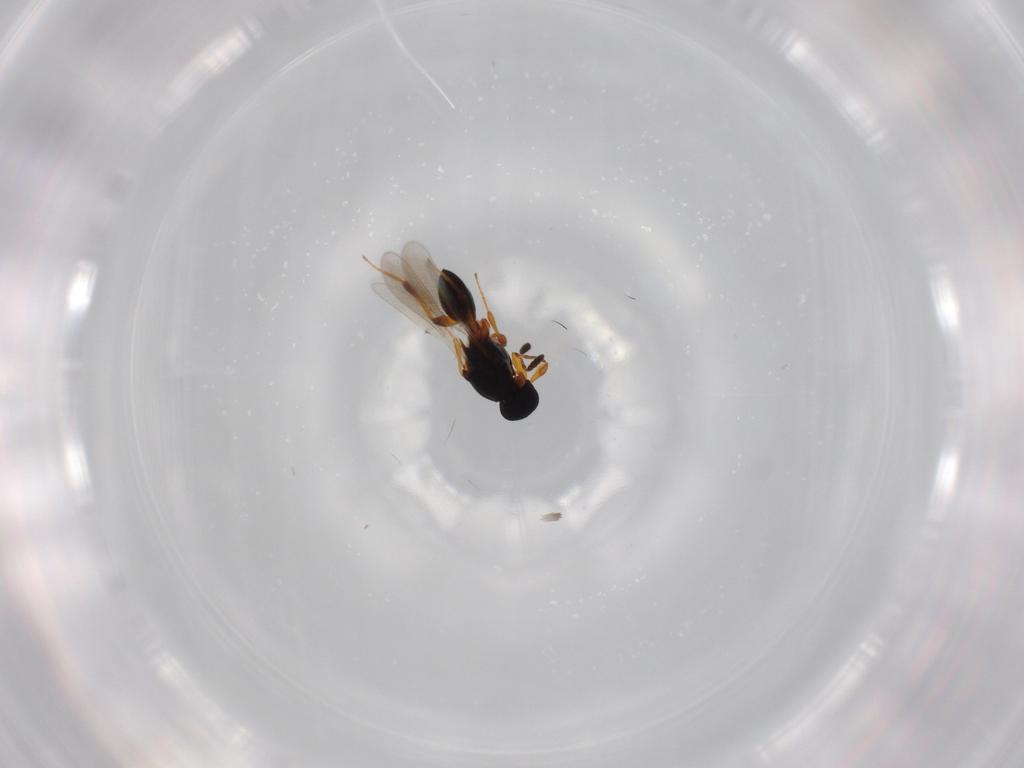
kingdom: Animalia
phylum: Arthropoda
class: Insecta
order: Hymenoptera
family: Platygastridae
